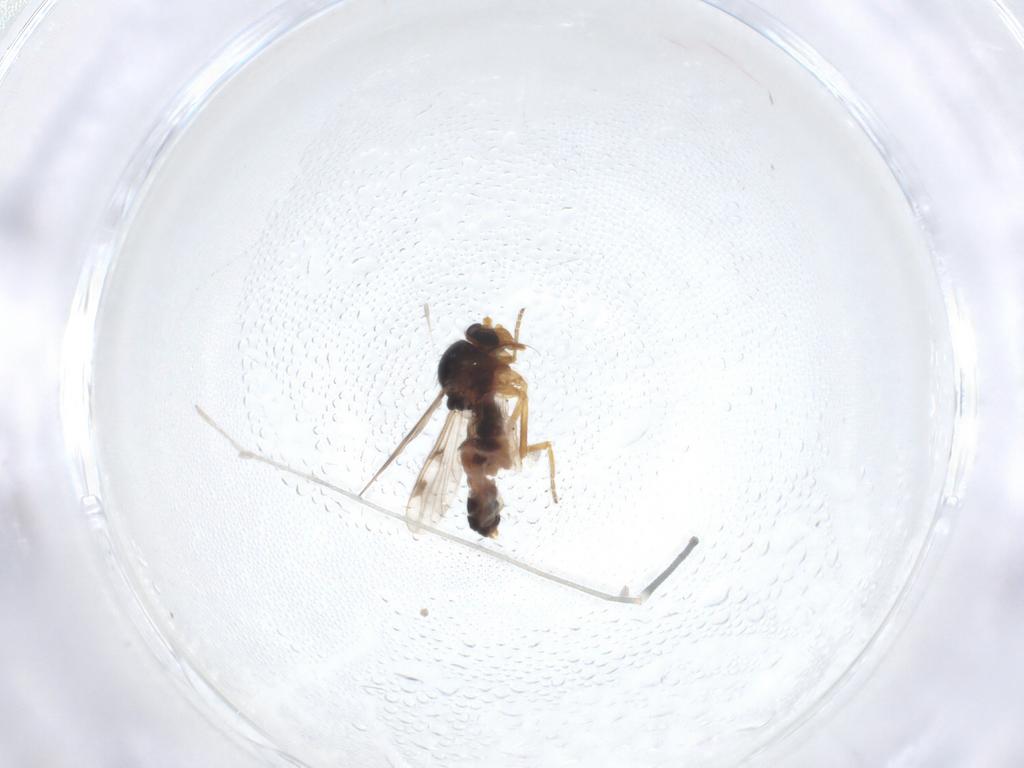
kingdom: Animalia
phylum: Arthropoda
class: Insecta
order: Diptera
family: Ceratopogonidae
